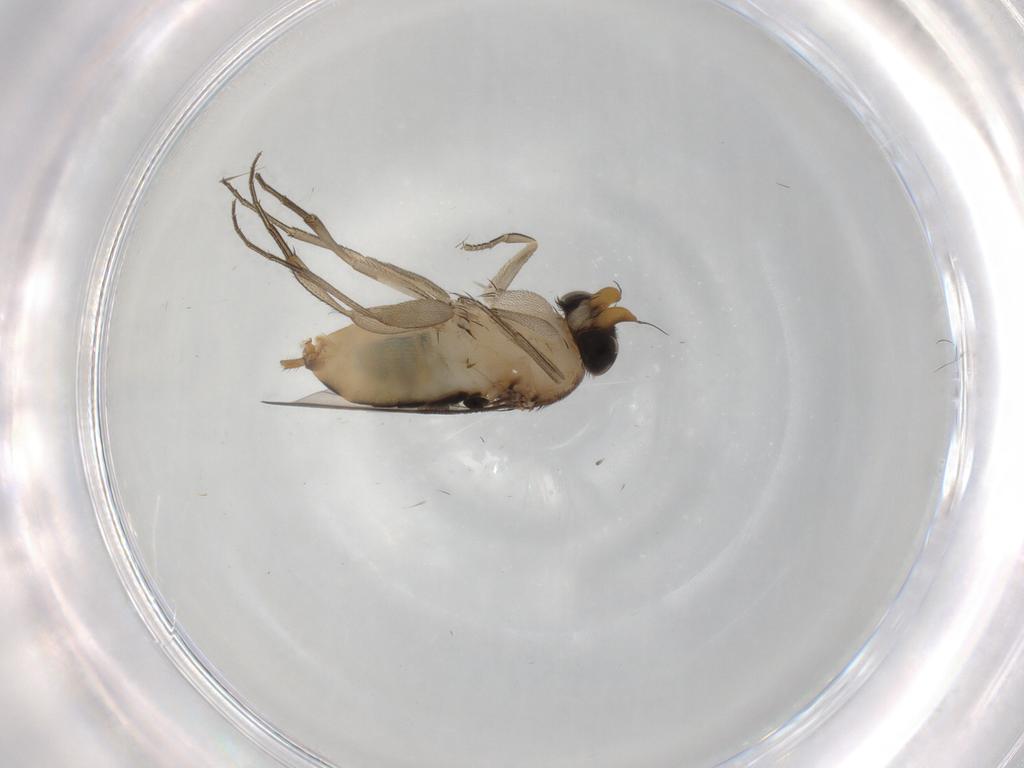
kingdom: Animalia
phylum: Arthropoda
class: Insecta
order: Diptera
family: Phoridae
